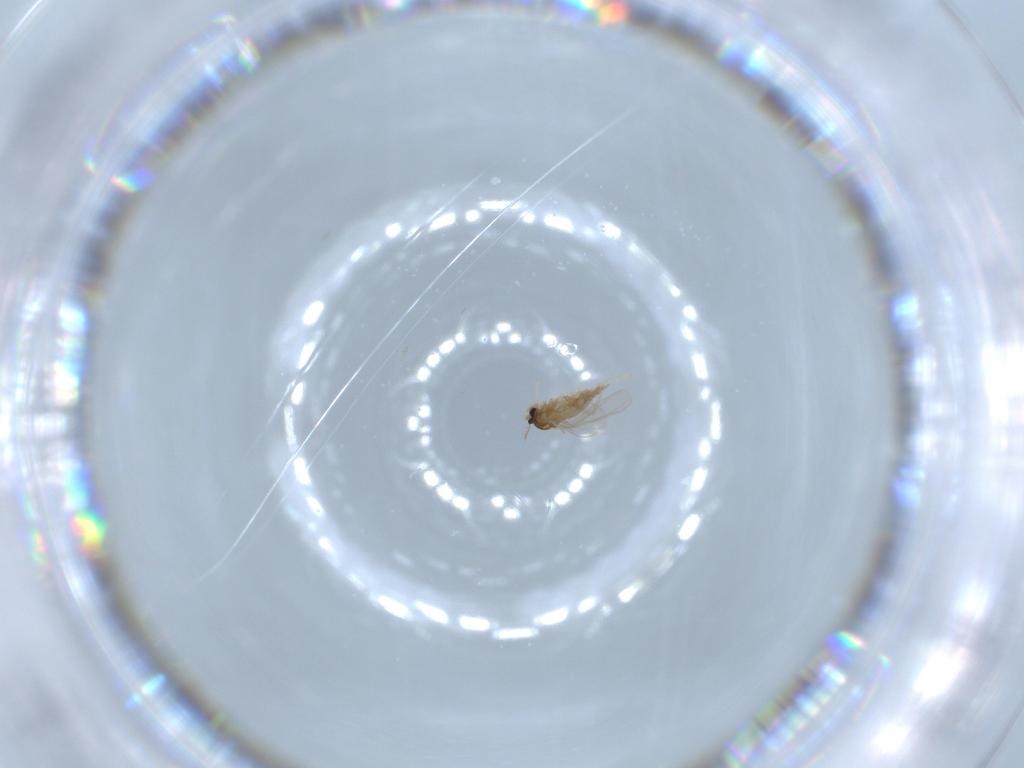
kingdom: Animalia
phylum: Arthropoda
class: Insecta
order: Diptera
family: Cecidomyiidae
